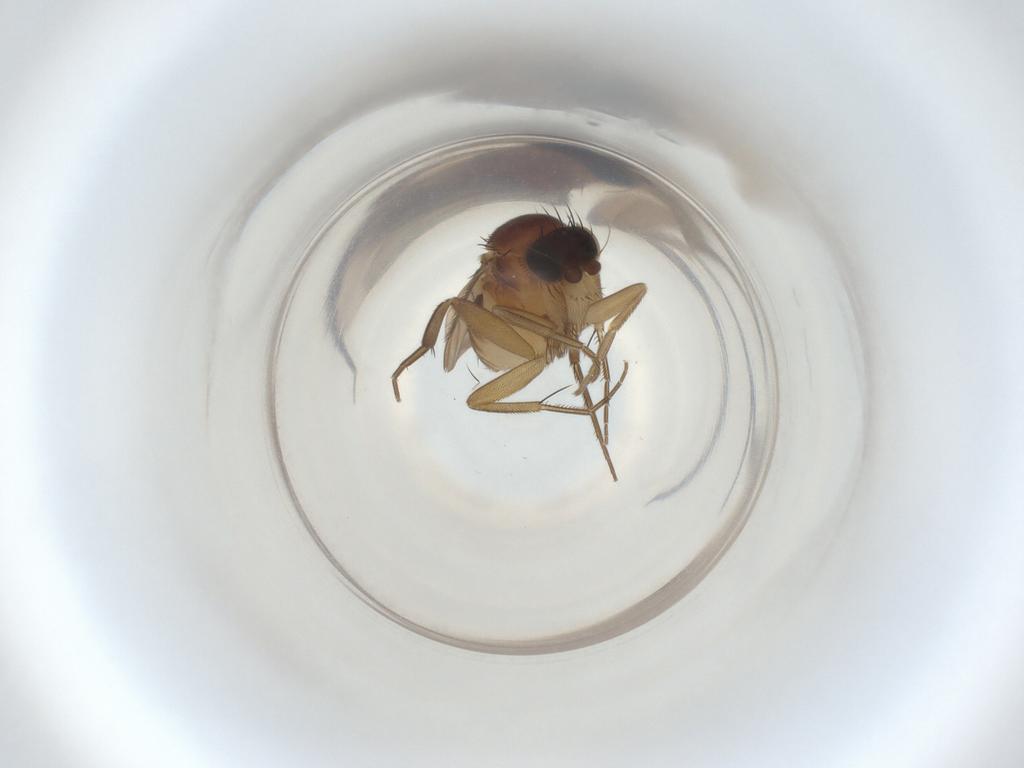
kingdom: Animalia
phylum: Arthropoda
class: Insecta
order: Diptera
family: Phoridae
